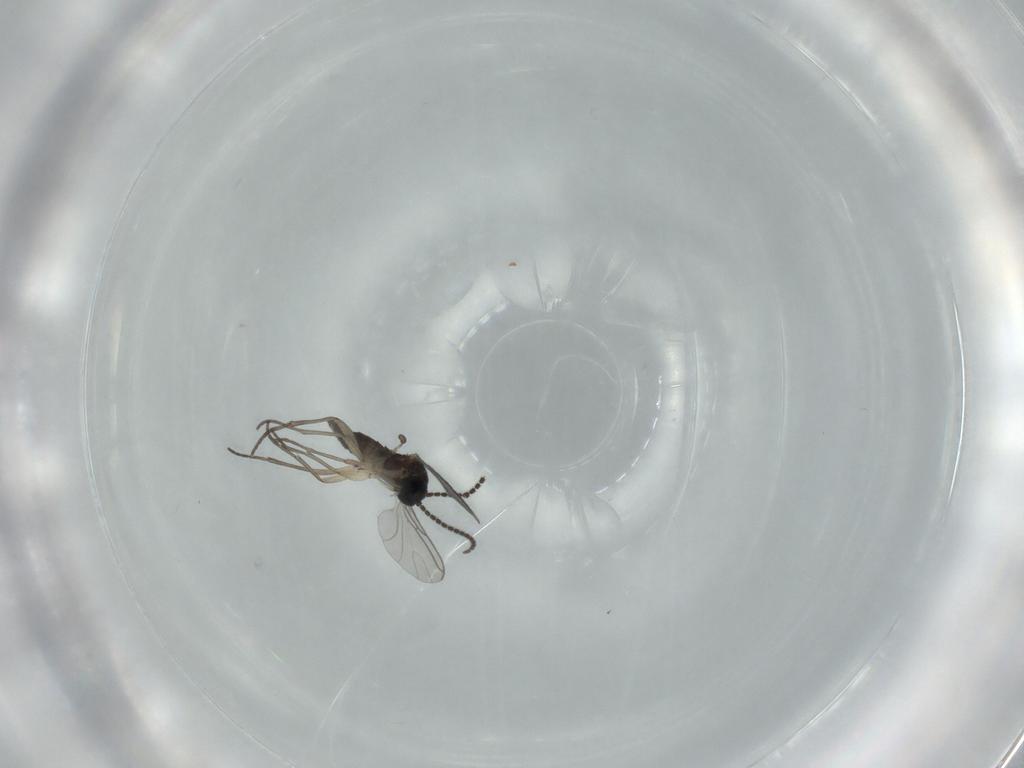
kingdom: Animalia
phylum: Arthropoda
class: Insecta
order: Diptera
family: Sciaridae
